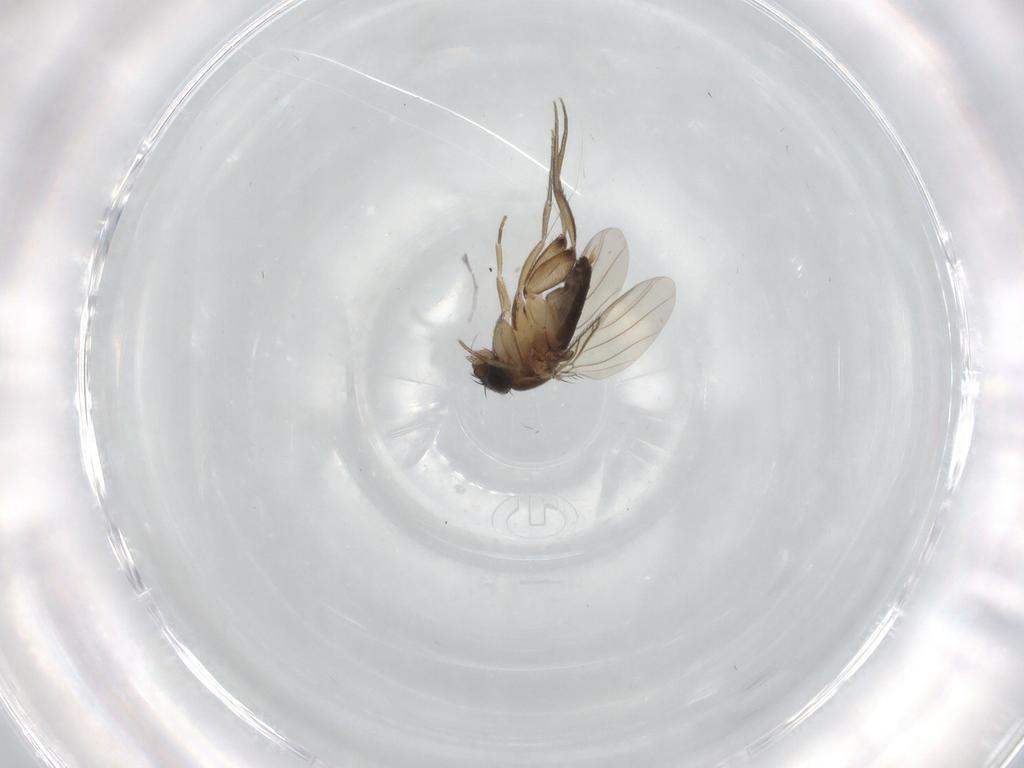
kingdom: Animalia
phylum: Arthropoda
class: Insecta
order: Diptera
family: Phoridae
